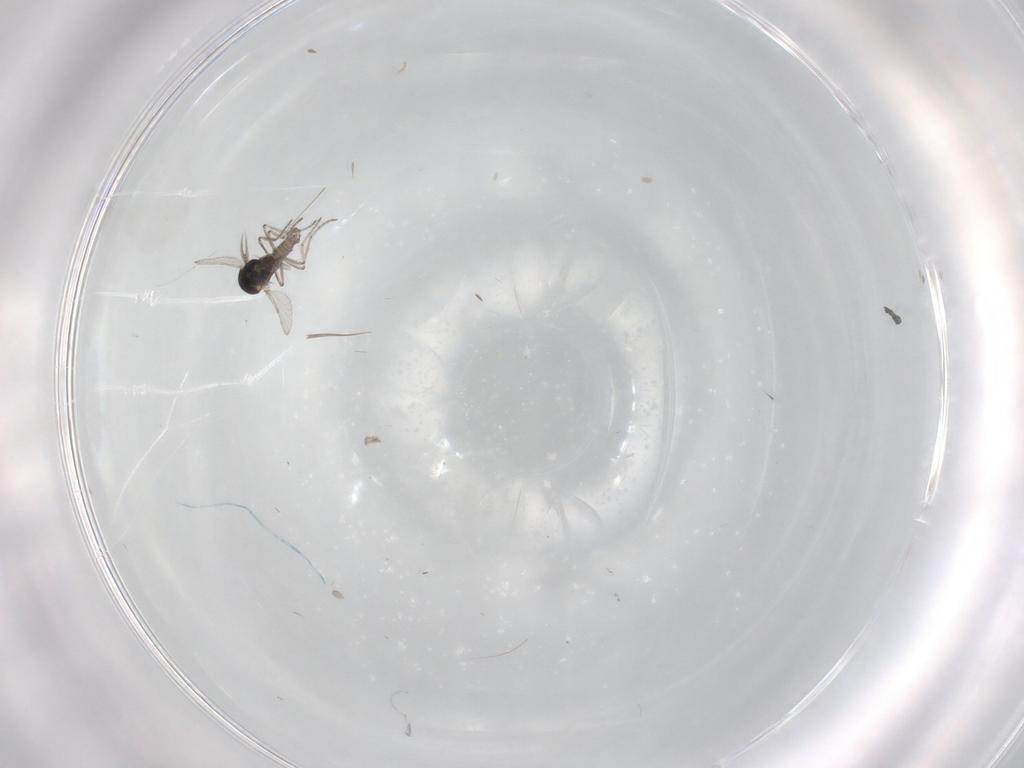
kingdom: Animalia
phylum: Arthropoda
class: Insecta
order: Diptera
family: Ceratopogonidae
